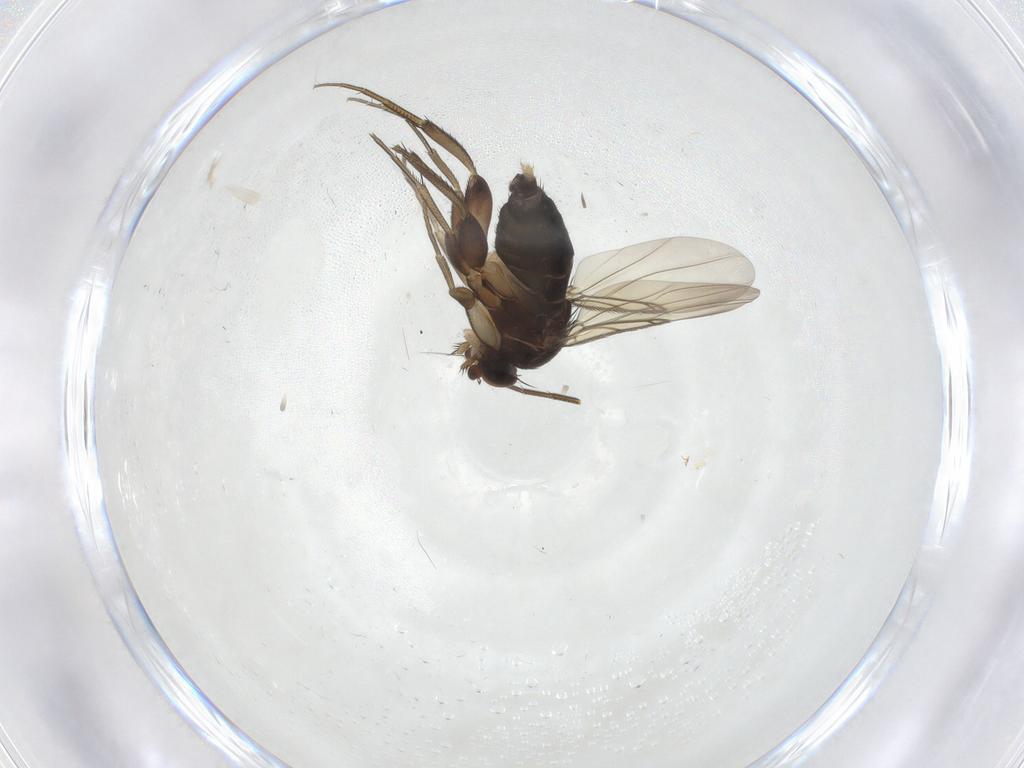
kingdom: Animalia
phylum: Arthropoda
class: Insecta
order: Diptera
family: Phoridae
